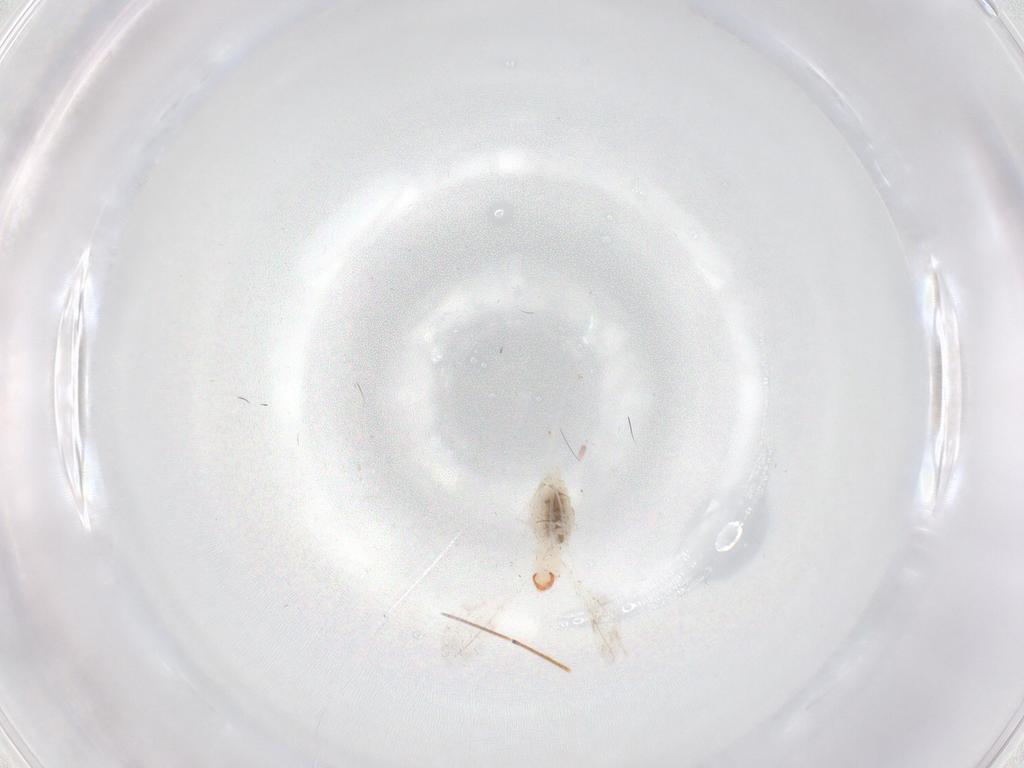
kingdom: Animalia
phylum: Arthropoda
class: Insecta
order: Diptera
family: Cecidomyiidae
